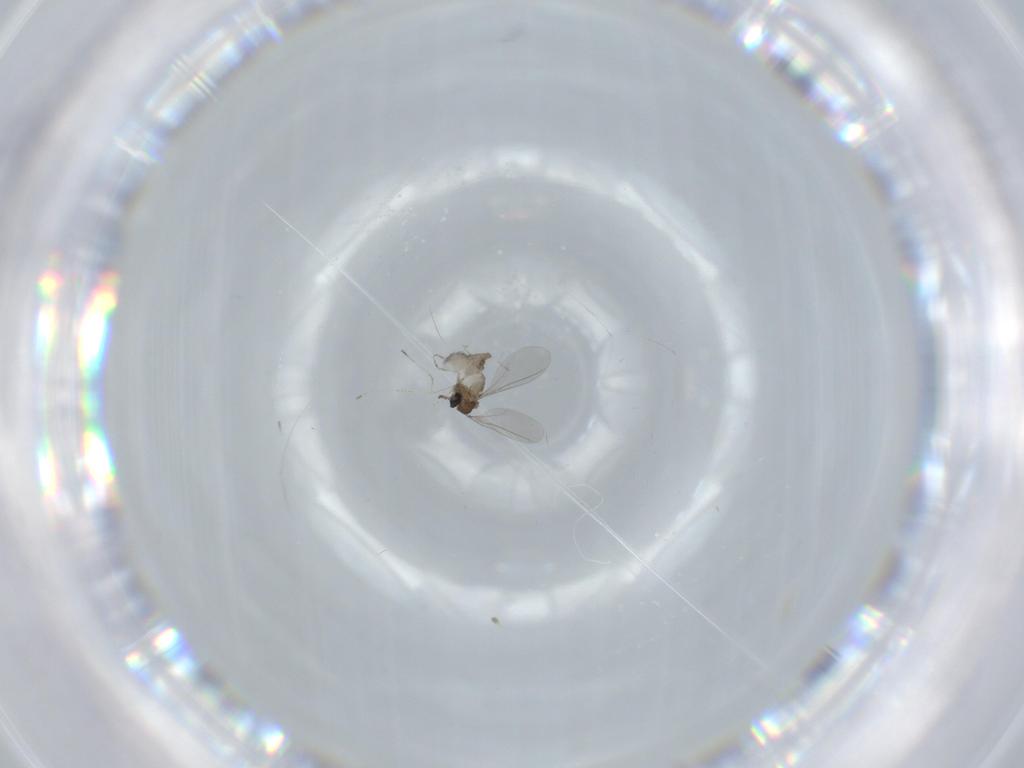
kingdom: Animalia
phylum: Arthropoda
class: Insecta
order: Diptera
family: Cecidomyiidae
